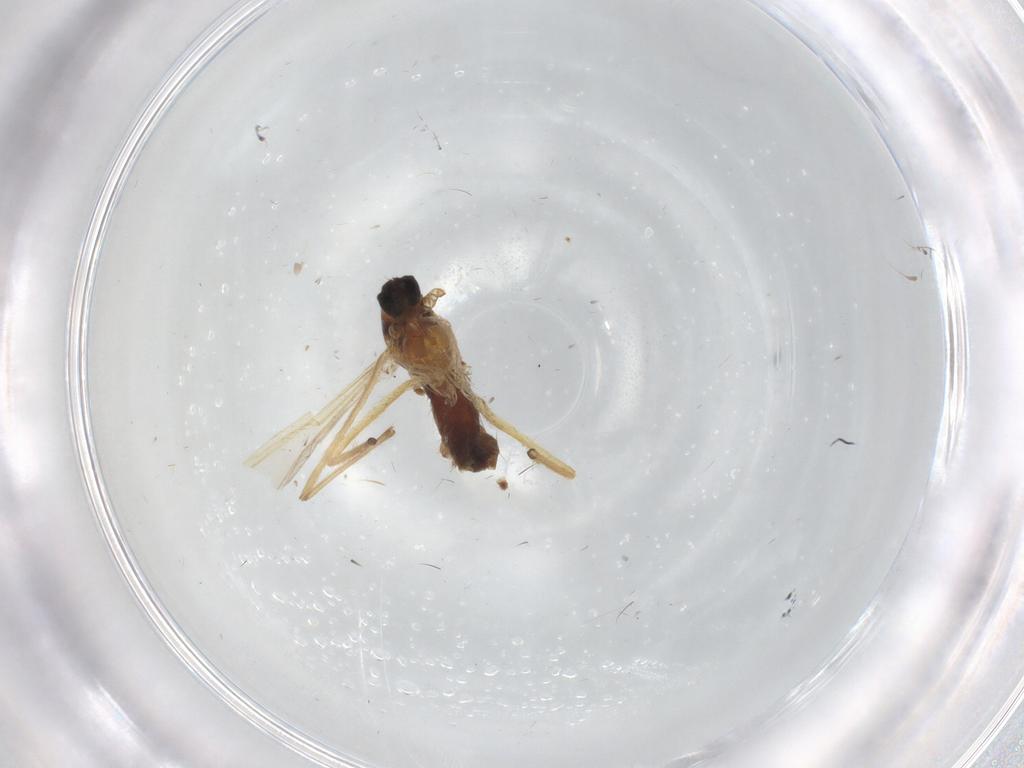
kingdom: Animalia
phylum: Arthropoda
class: Insecta
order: Diptera
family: Chironomidae
